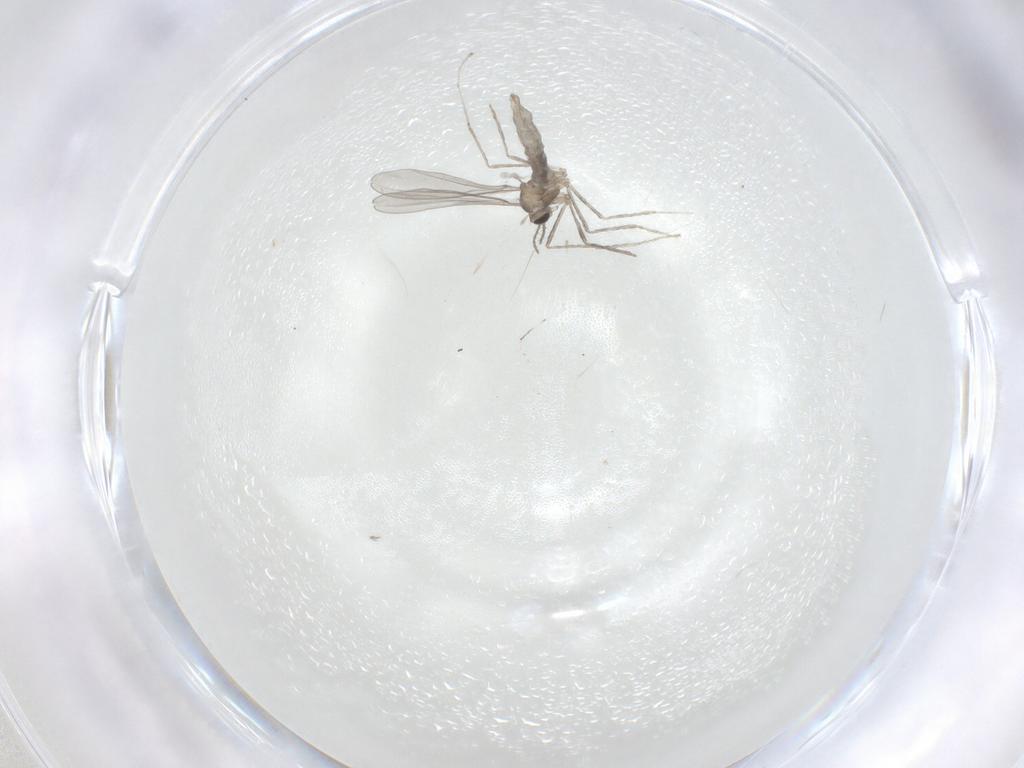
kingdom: Animalia
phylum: Arthropoda
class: Insecta
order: Diptera
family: Cecidomyiidae
